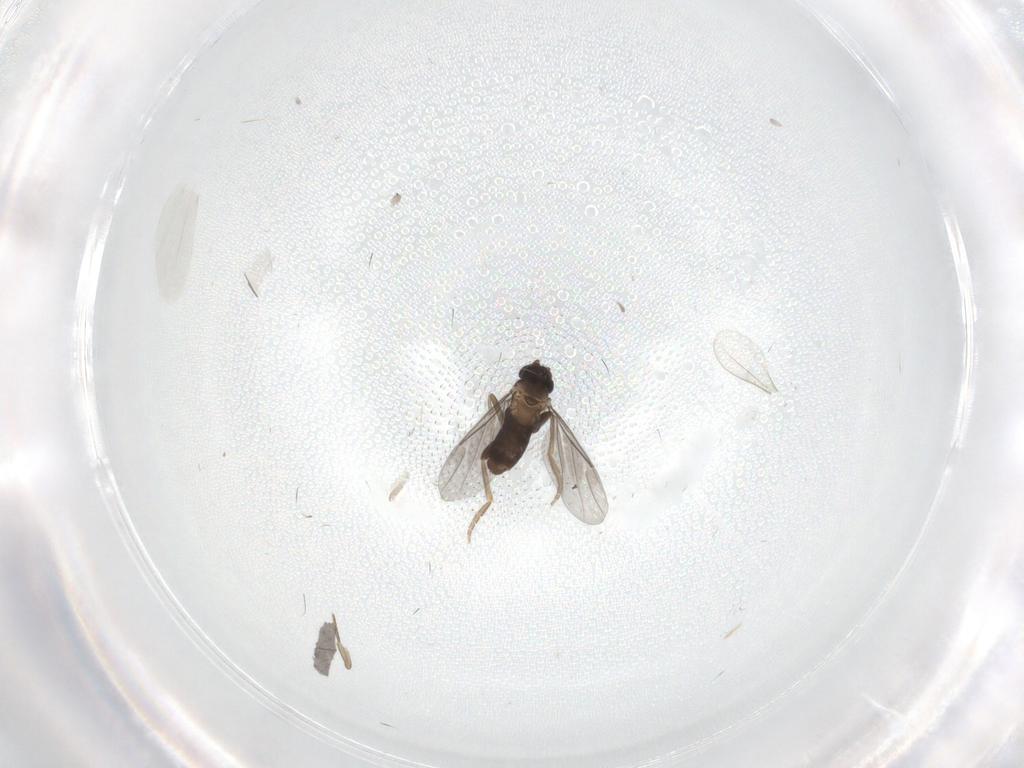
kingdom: Animalia
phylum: Arthropoda
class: Insecta
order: Diptera
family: Phoridae
